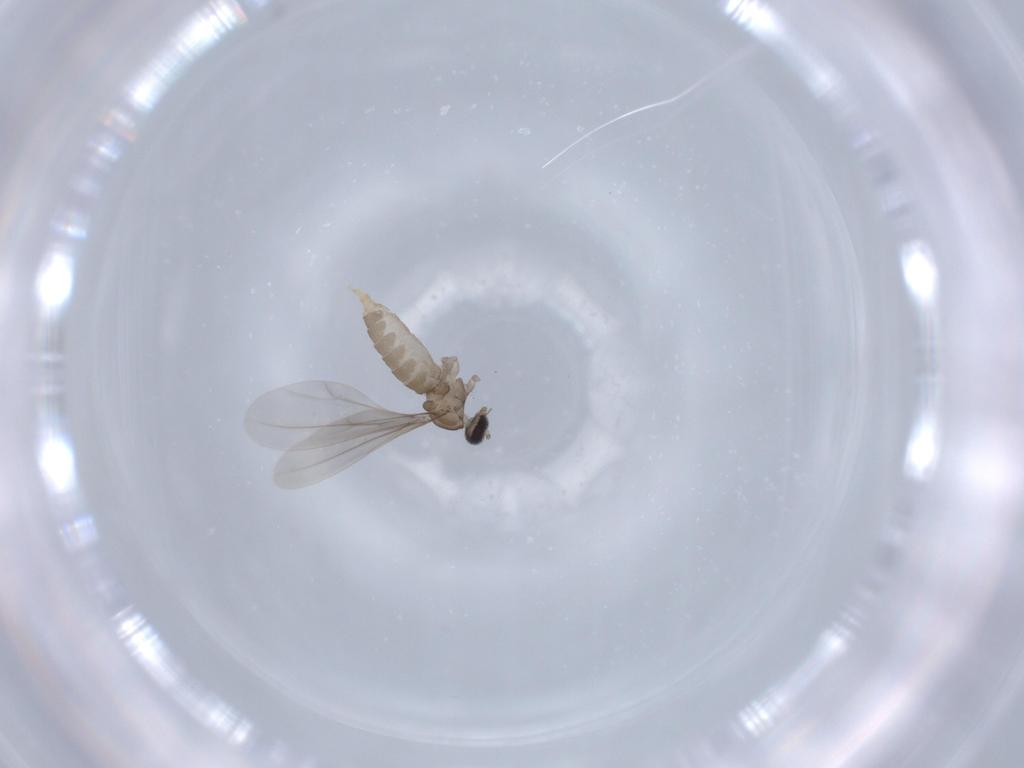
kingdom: Animalia
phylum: Arthropoda
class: Insecta
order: Diptera
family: Cecidomyiidae
